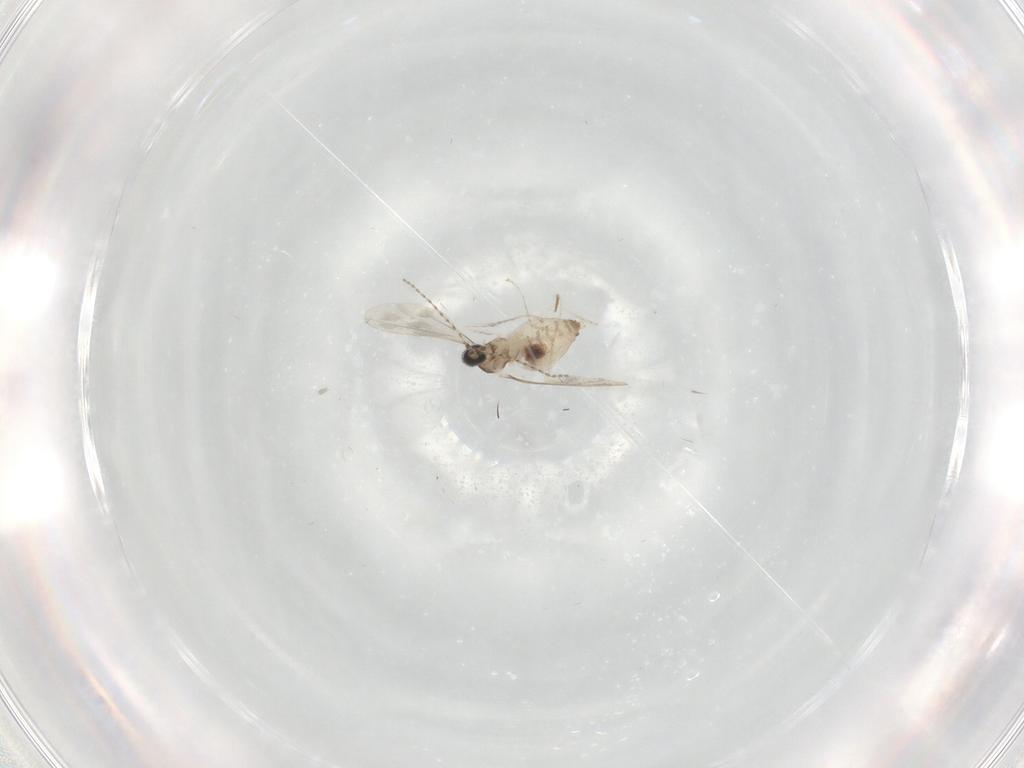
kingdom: Animalia
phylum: Arthropoda
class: Insecta
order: Diptera
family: Cecidomyiidae
